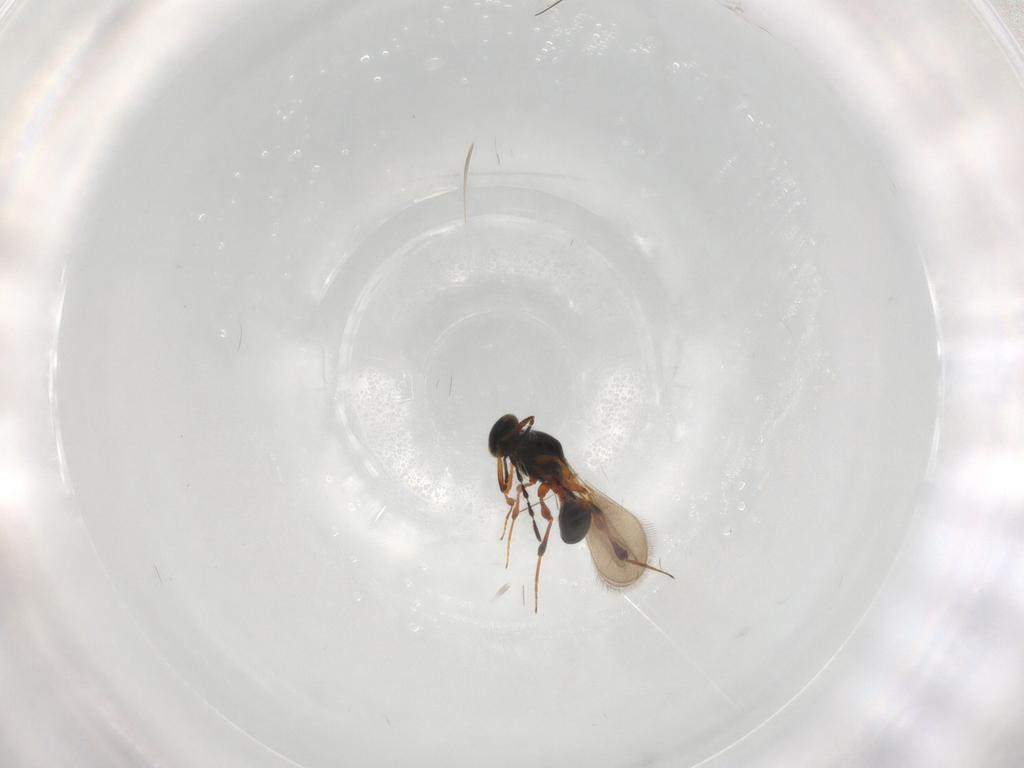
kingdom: Animalia
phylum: Arthropoda
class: Insecta
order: Hymenoptera
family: Platygastridae
